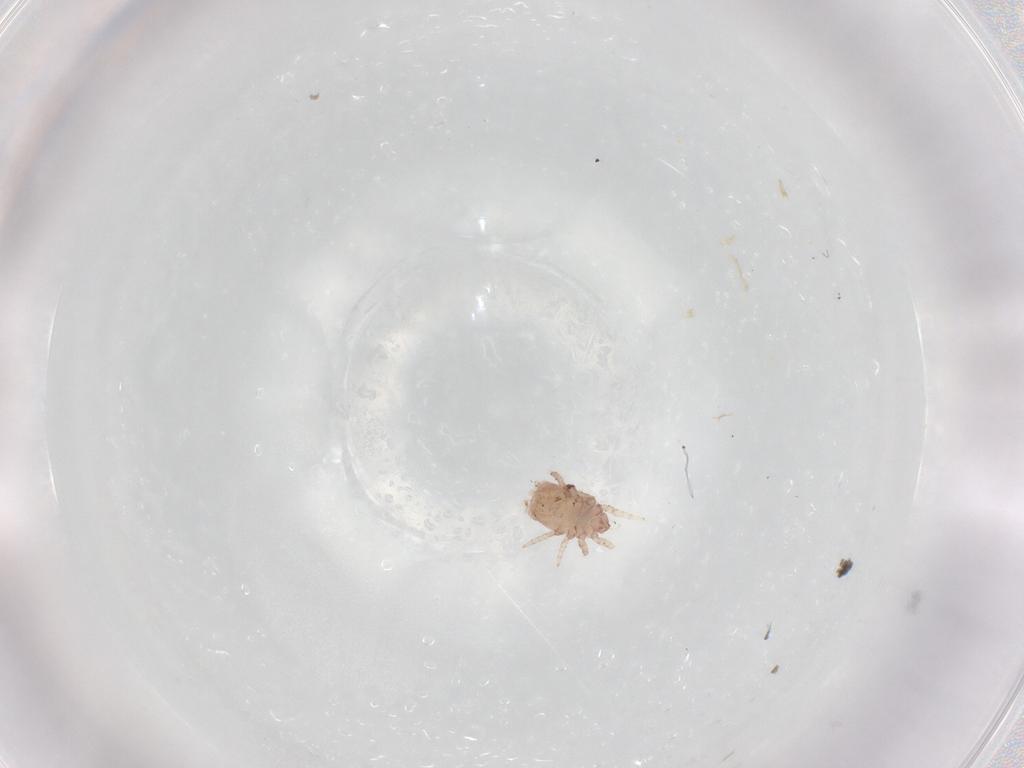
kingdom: Animalia
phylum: Arthropoda
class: Arachnida
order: Sarcoptiformes
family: Crotoniidae
